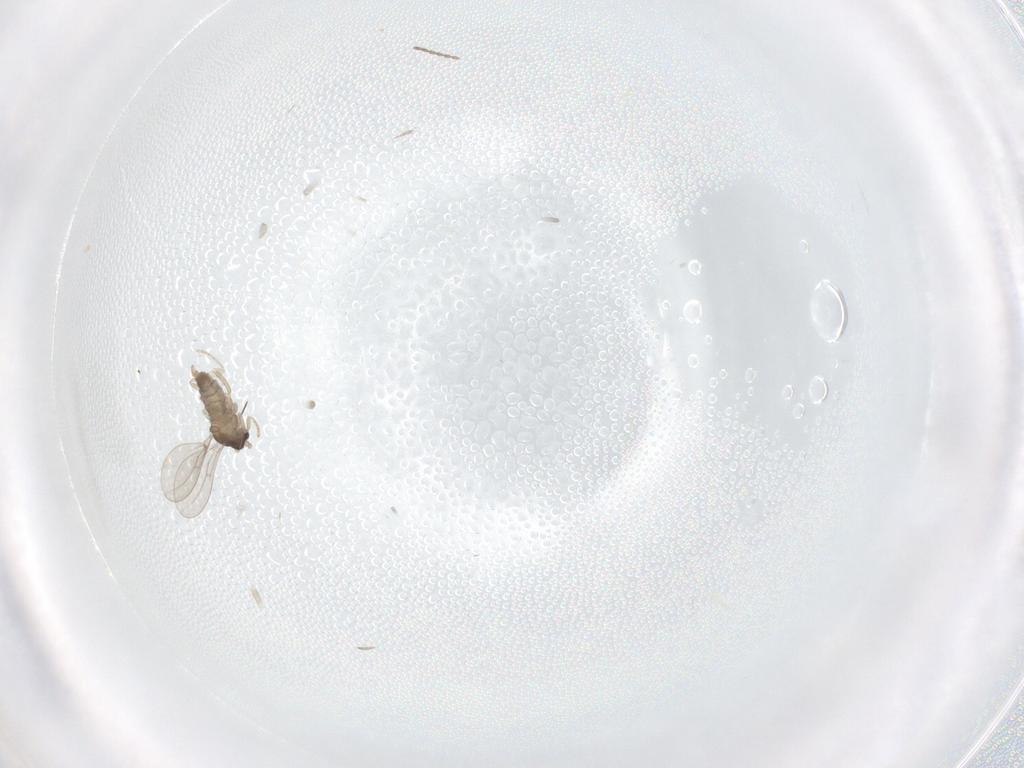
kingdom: Animalia
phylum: Arthropoda
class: Insecta
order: Diptera
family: Cecidomyiidae
